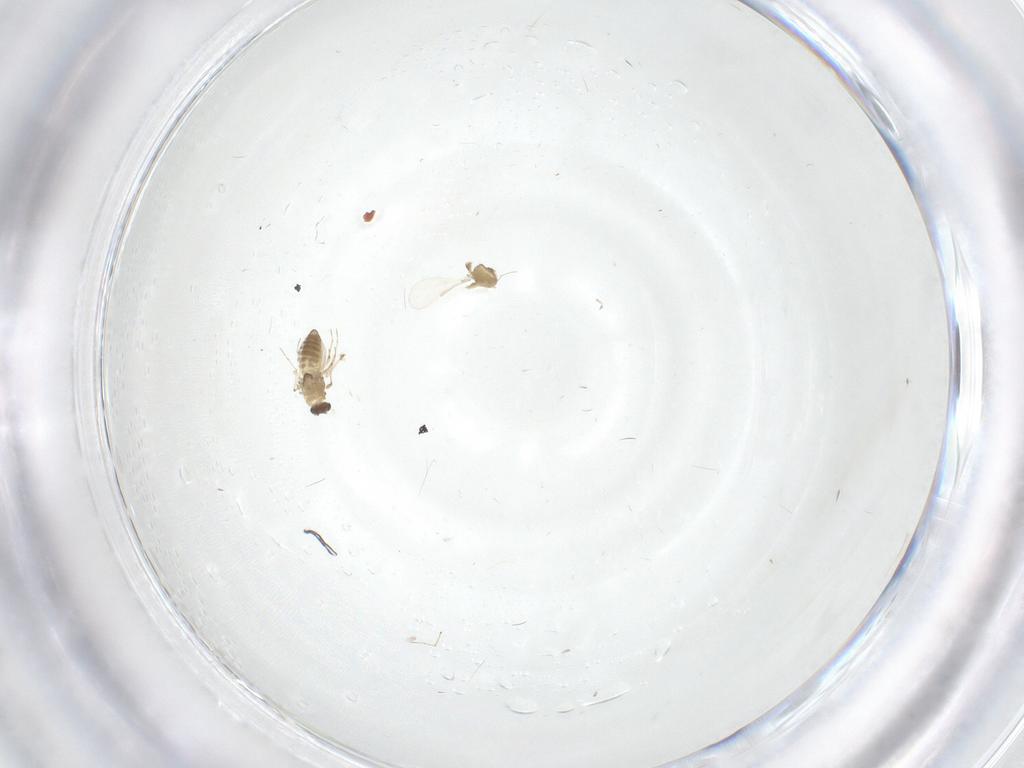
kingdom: Animalia
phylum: Arthropoda
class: Insecta
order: Diptera
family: Chironomidae
